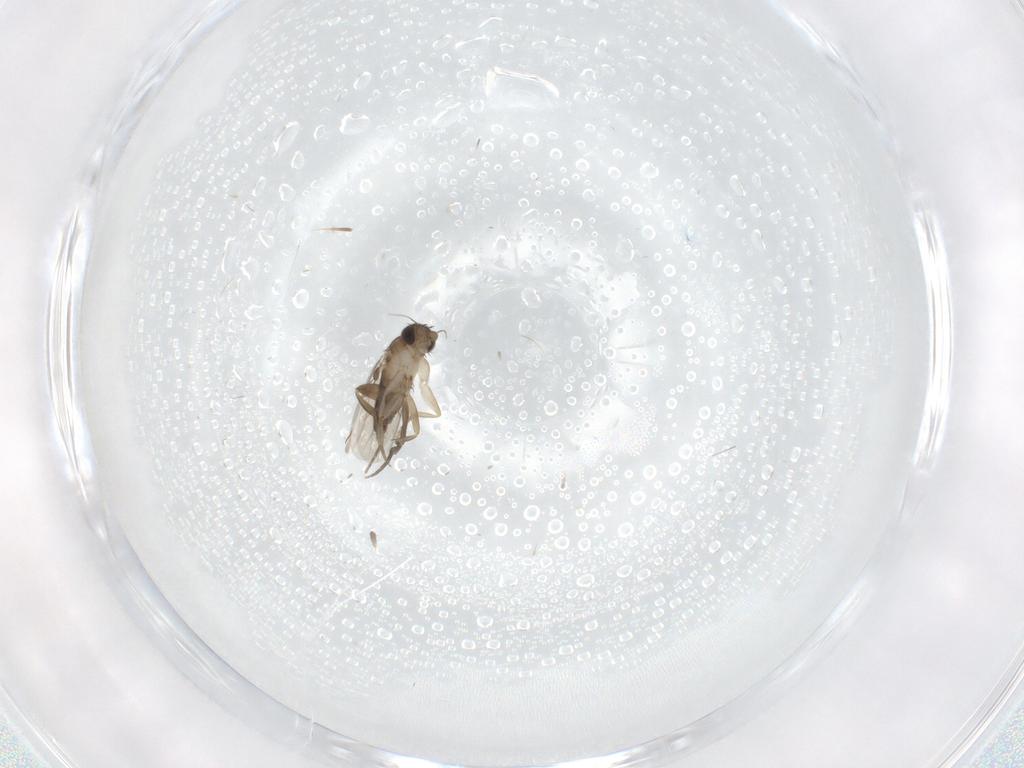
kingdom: Animalia
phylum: Arthropoda
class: Insecta
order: Diptera
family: Phoridae
